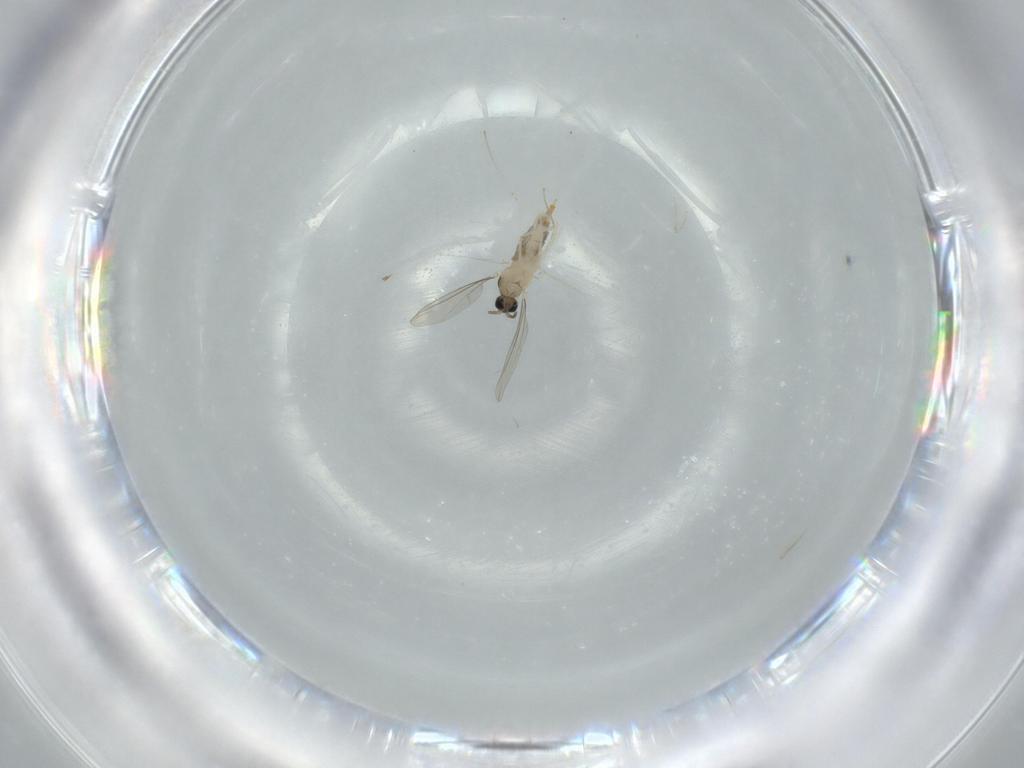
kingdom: Animalia
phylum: Arthropoda
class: Insecta
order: Diptera
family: Cecidomyiidae
